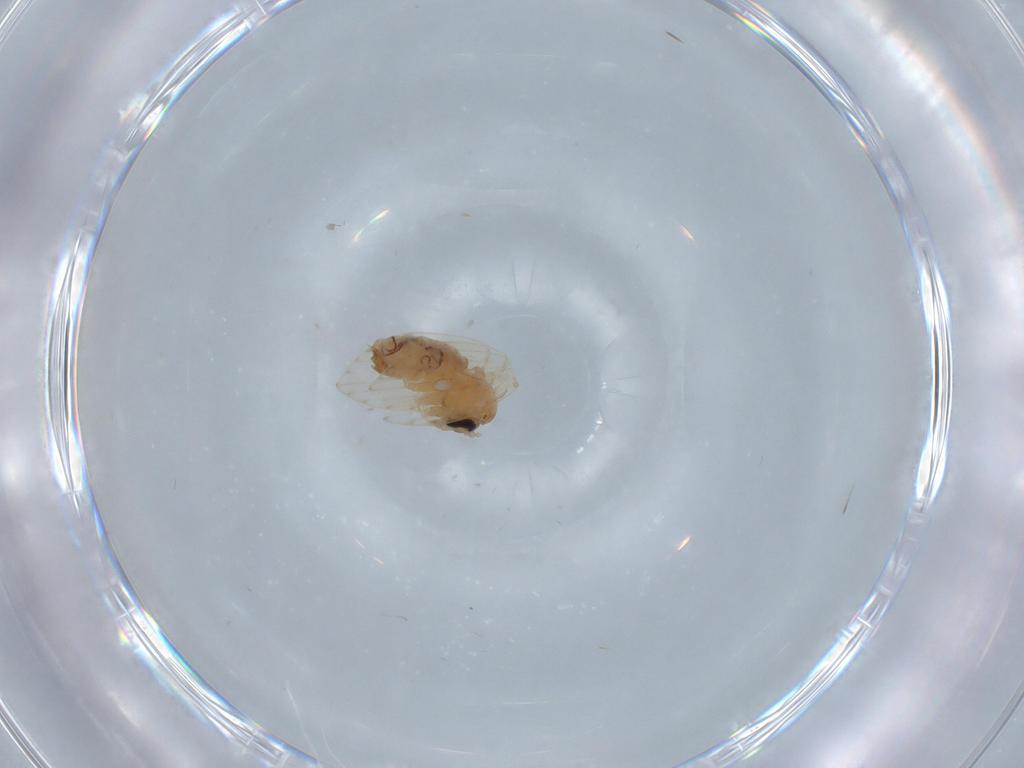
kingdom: Animalia
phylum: Arthropoda
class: Insecta
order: Diptera
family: Psychodidae
